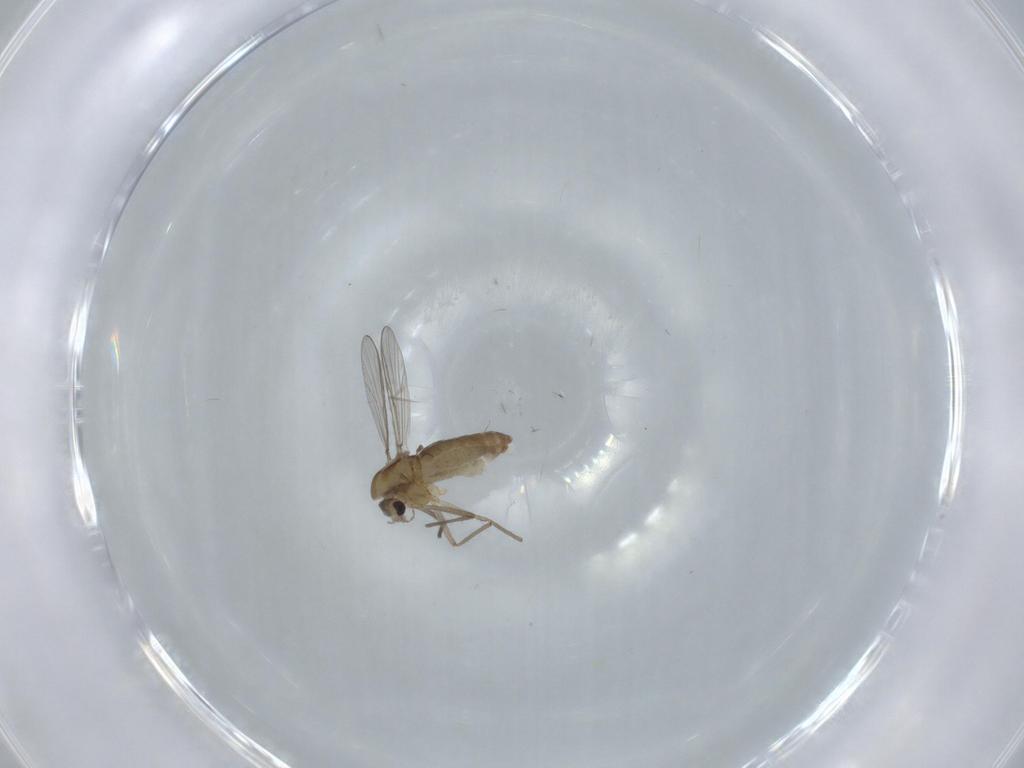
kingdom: Animalia
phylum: Arthropoda
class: Insecta
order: Diptera
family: Chironomidae
